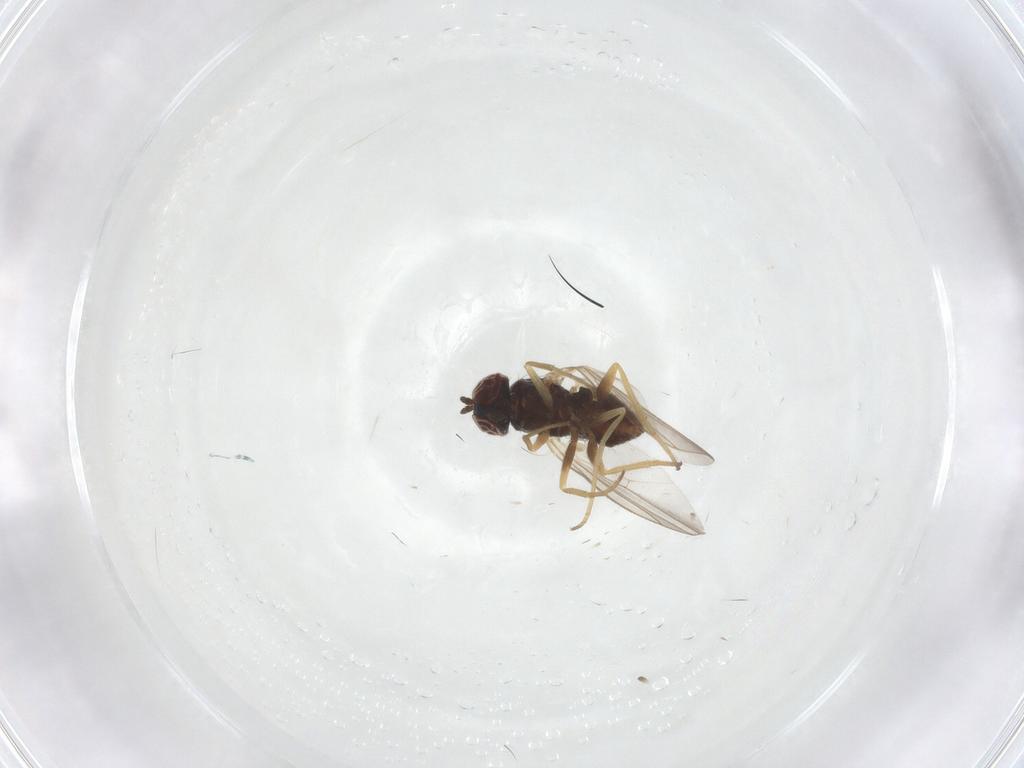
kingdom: Animalia
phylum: Arthropoda
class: Insecta
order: Diptera
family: Dolichopodidae
